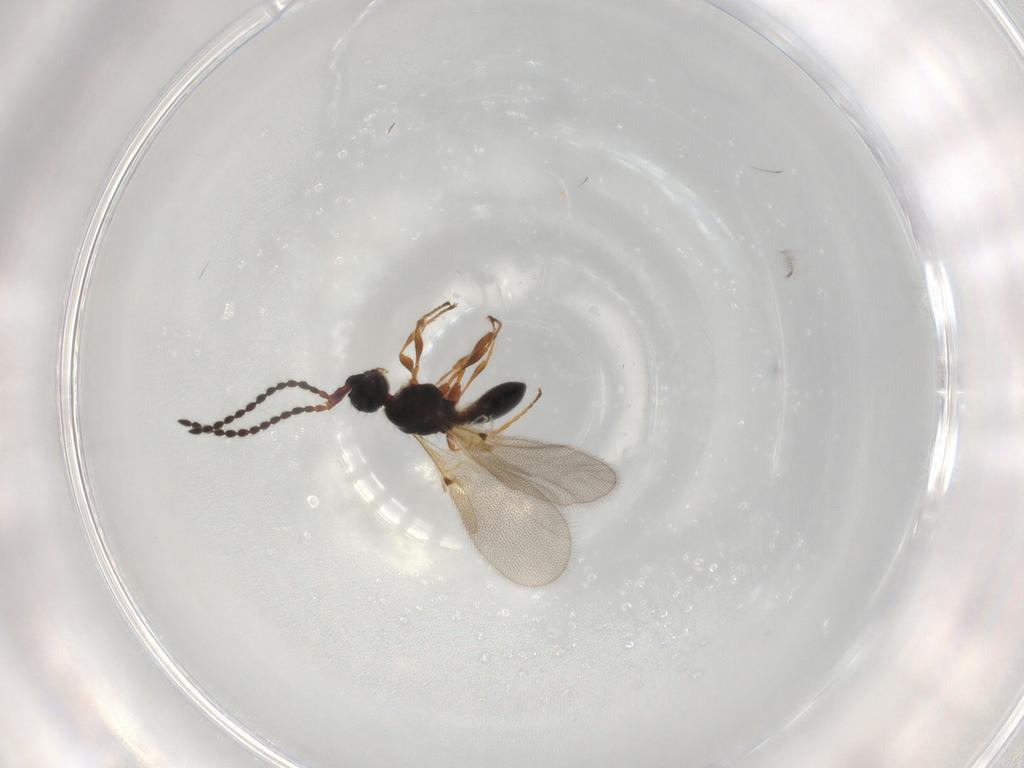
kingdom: Animalia
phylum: Arthropoda
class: Insecta
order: Hymenoptera
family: Diapriidae
